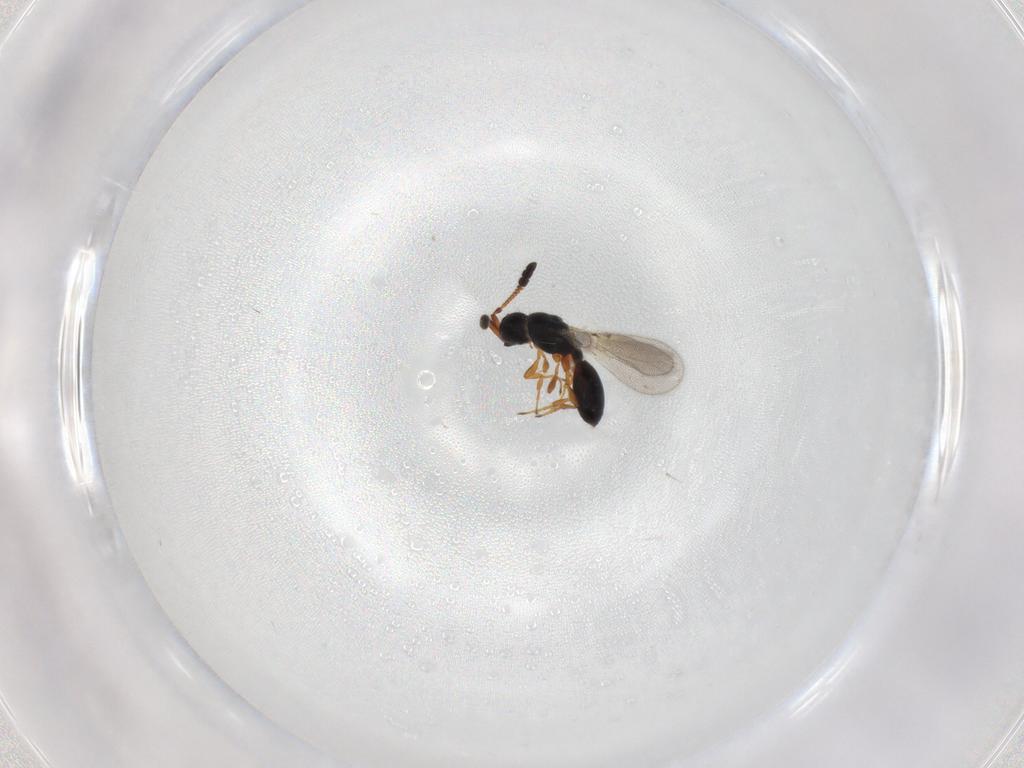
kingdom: Animalia
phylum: Arthropoda
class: Insecta
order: Hymenoptera
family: Diapriidae
